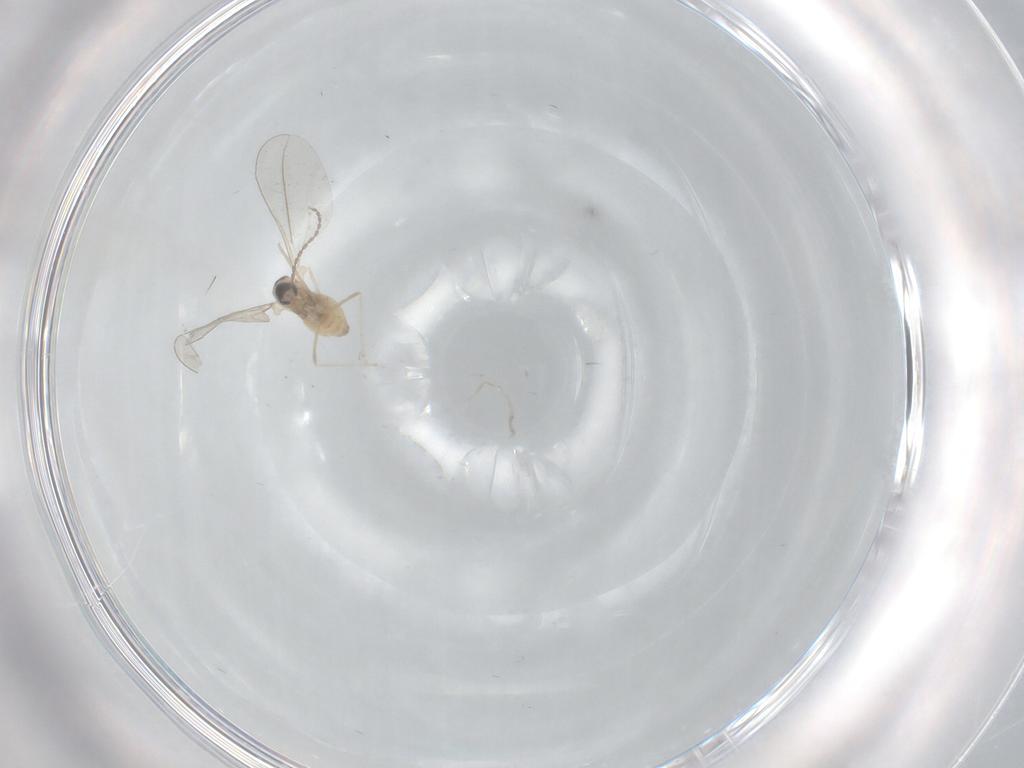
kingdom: Animalia
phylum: Arthropoda
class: Insecta
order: Diptera
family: Cecidomyiidae
